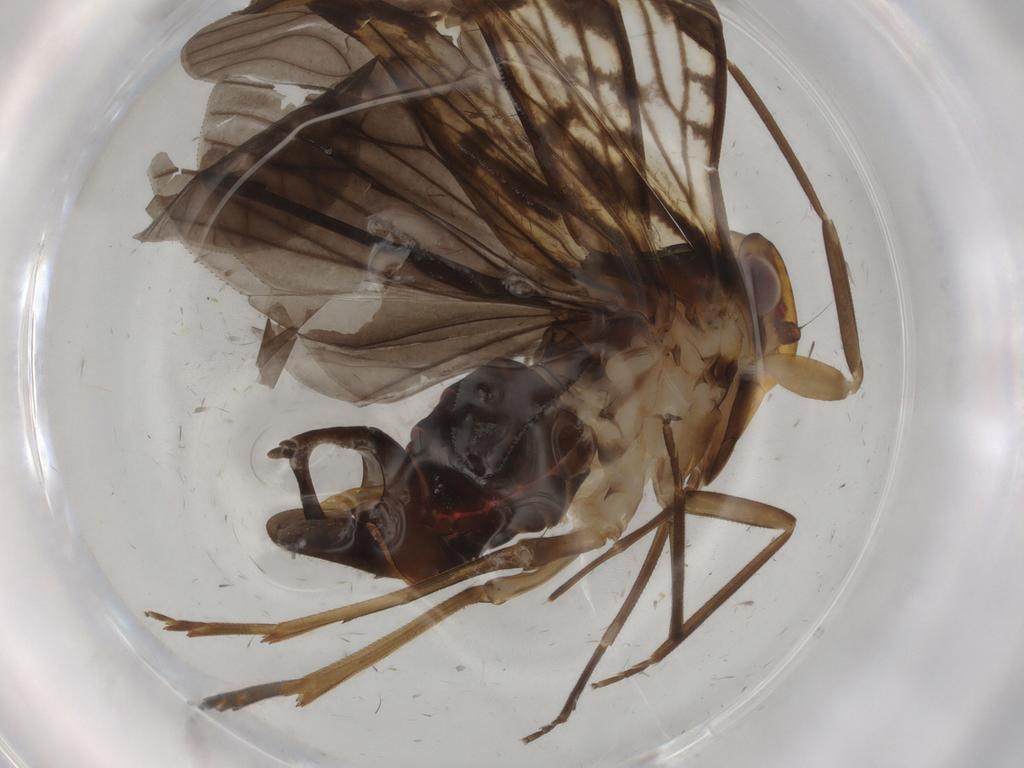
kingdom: Animalia
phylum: Arthropoda
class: Insecta
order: Hemiptera
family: Cixiidae
